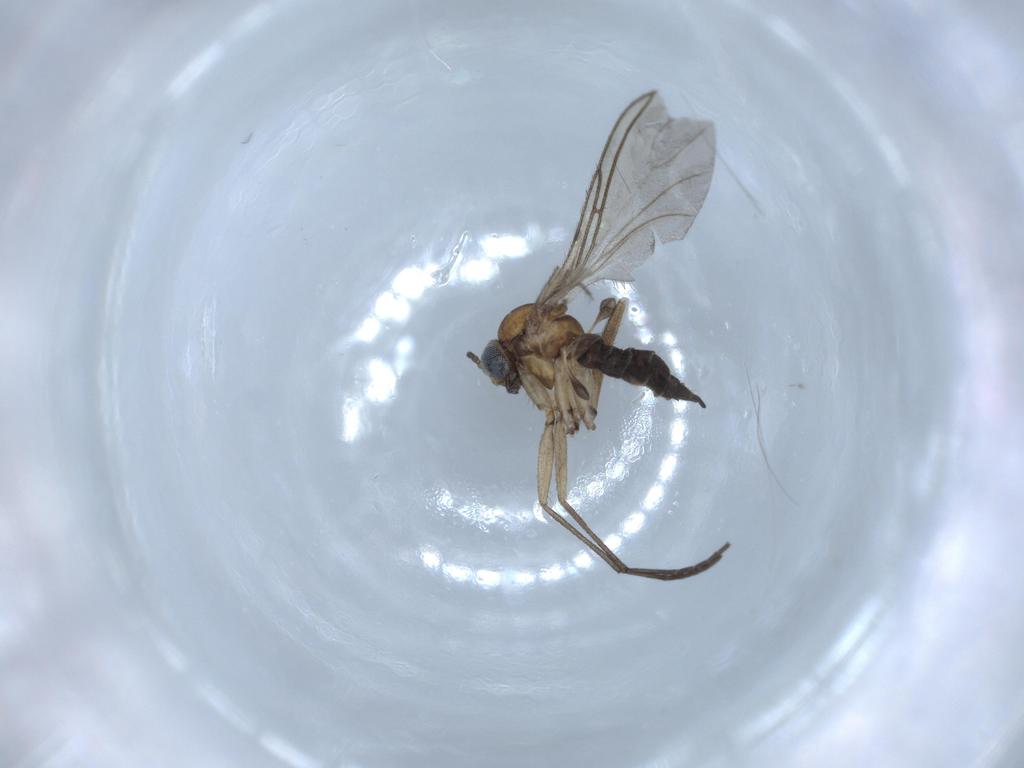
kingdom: Animalia
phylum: Arthropoda
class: Insecta
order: Diptera
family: Sciaridae
